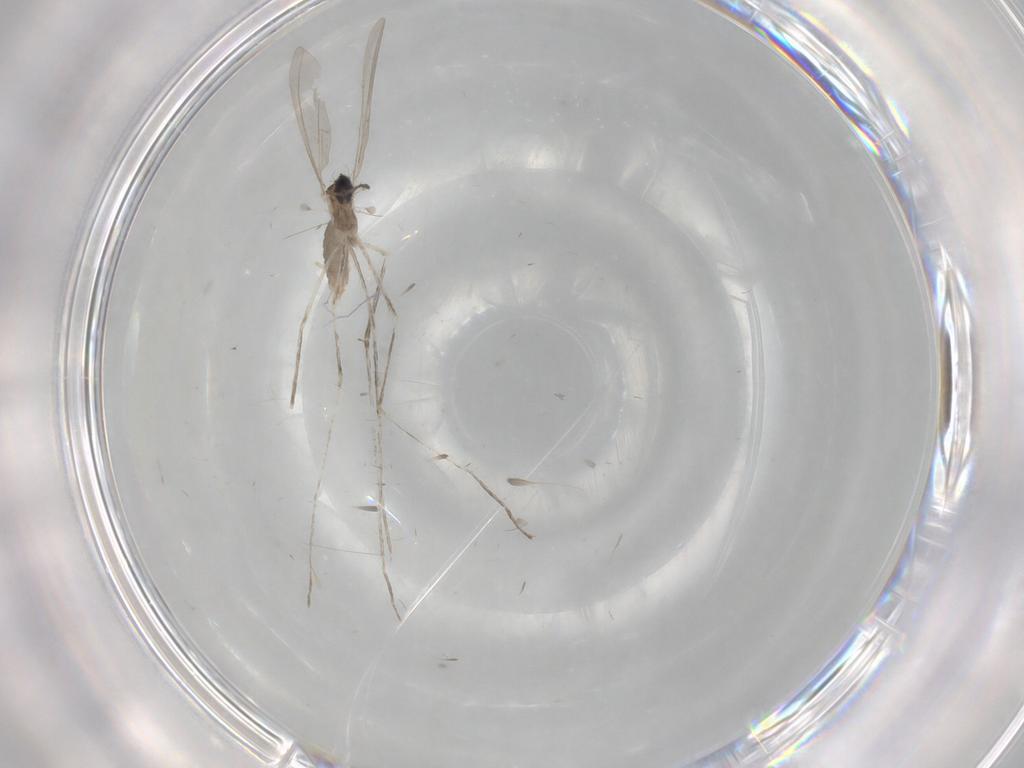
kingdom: Animalia
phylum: Arthropoda
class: Insecta
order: Diptera
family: Cecidomyiidae
